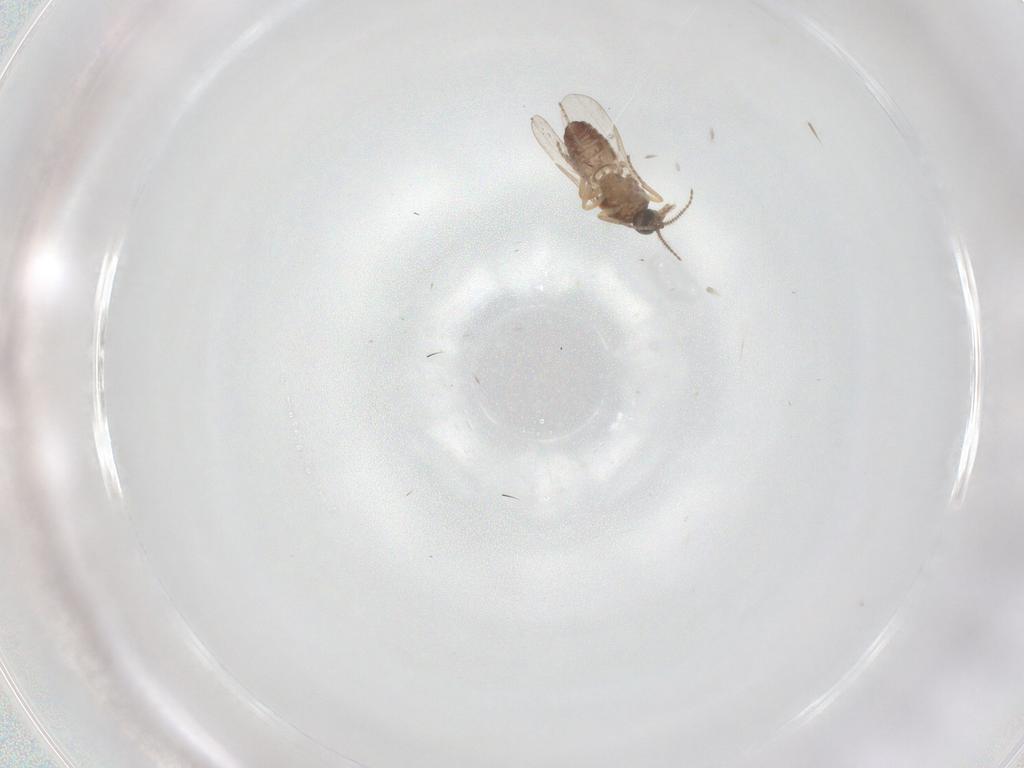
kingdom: Animalia
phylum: Arthropoda
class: Insecta
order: Diptera
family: Ceratopogonidae
